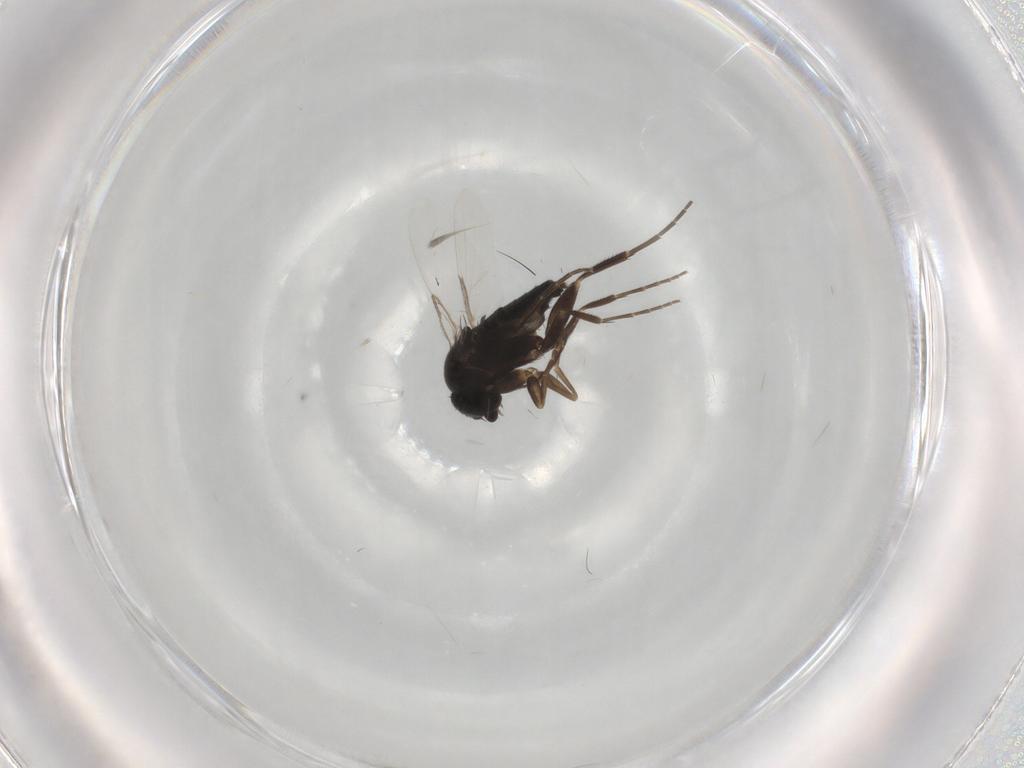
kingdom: Animalia
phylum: Arthropoda
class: Insecta
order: Diptera
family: Phoridae
